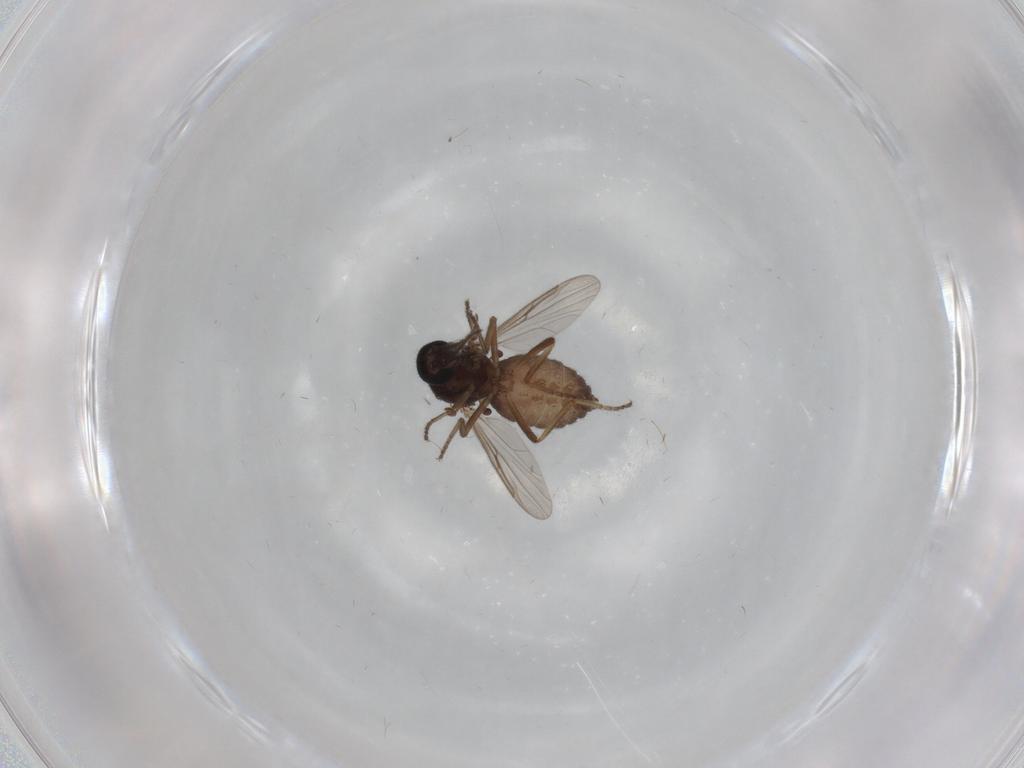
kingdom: Animalia
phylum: Arthropoda
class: Insecta
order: Diptera
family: Ceratopogonidae
